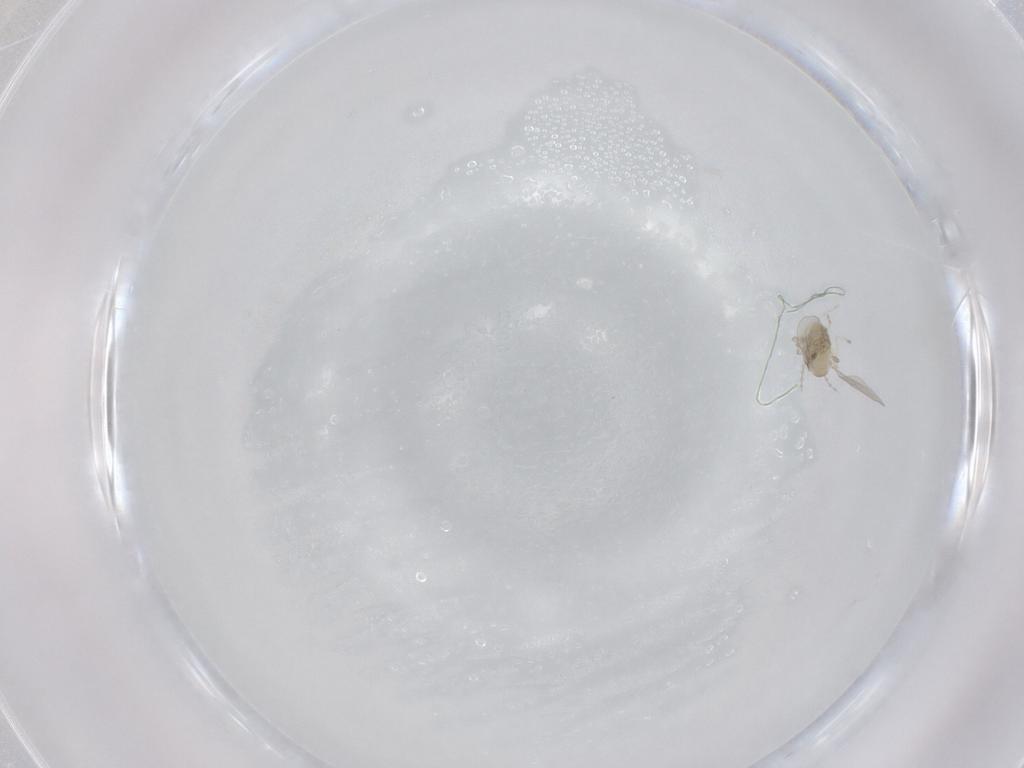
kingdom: Animalia
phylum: Arthropoda
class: Insecta
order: Diptera
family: Cecidomyiidae
